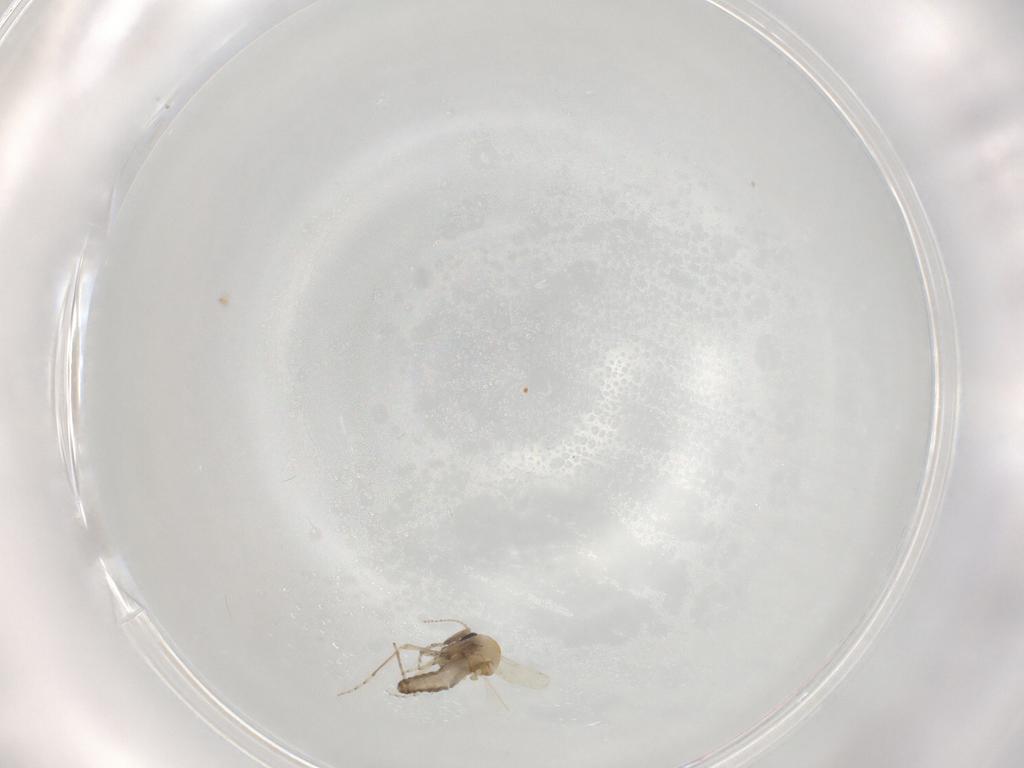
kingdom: Animalia
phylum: Arthropoda
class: Insecta
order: Diptera
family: Ceratopogonidae
